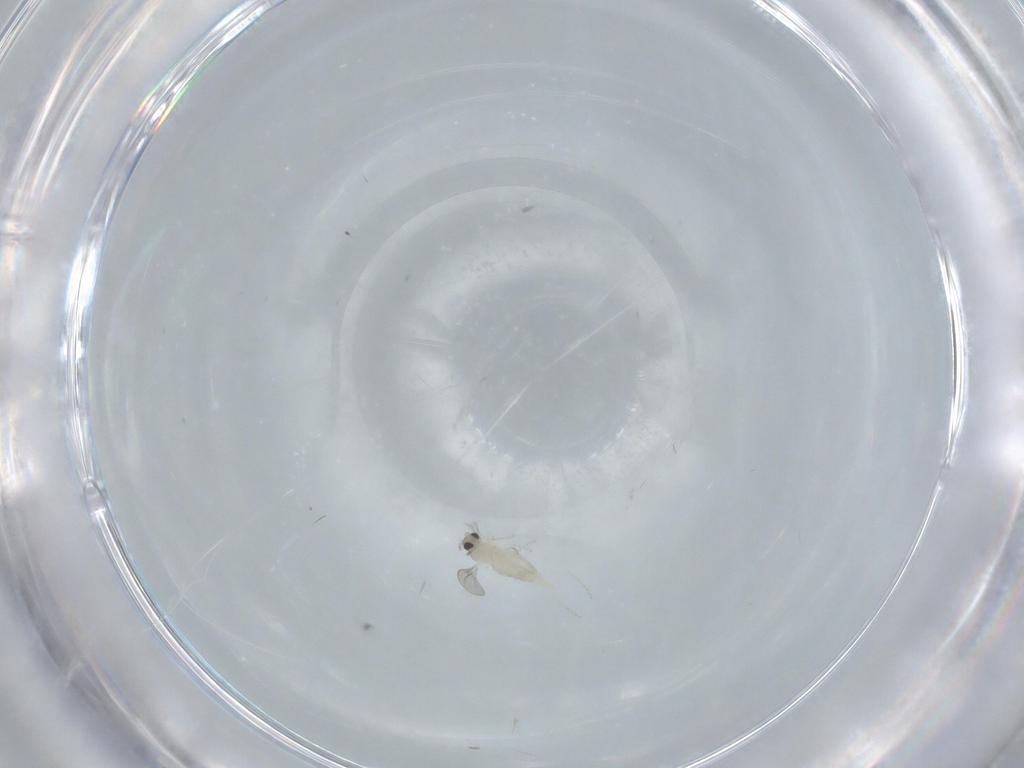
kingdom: Animalia
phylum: Arthropoda
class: Insecta
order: Diptera
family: Cecidomyiidae
